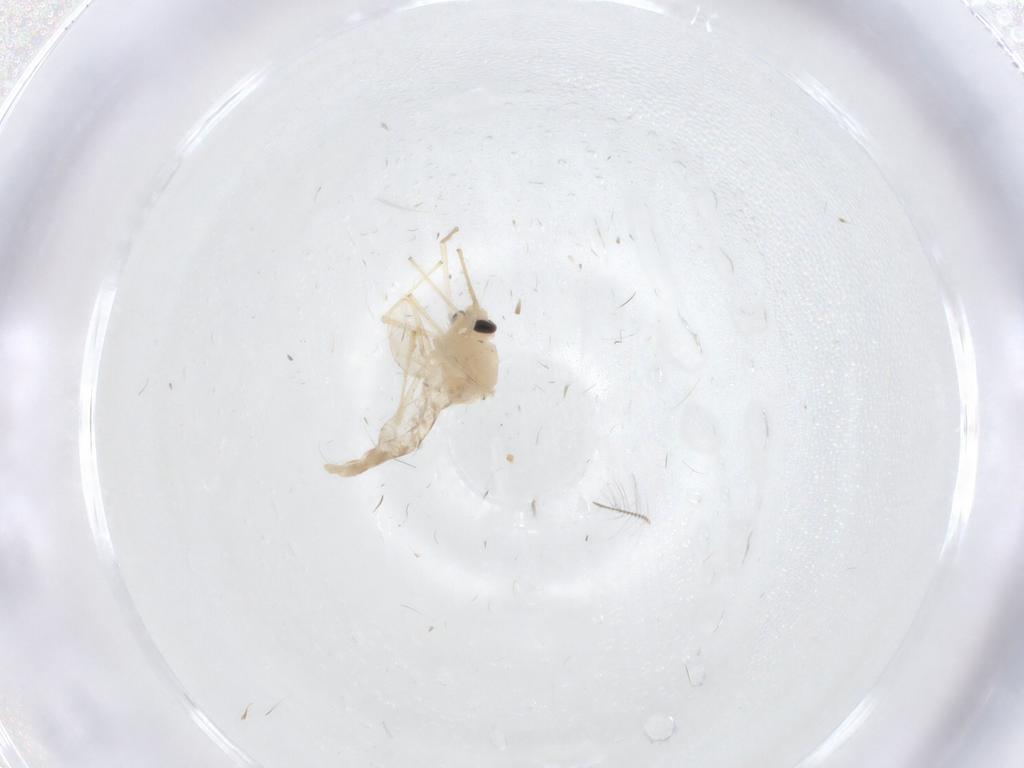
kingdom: Animalia
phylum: Arthropoda
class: Insecta
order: Diptera
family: Chironomidae
